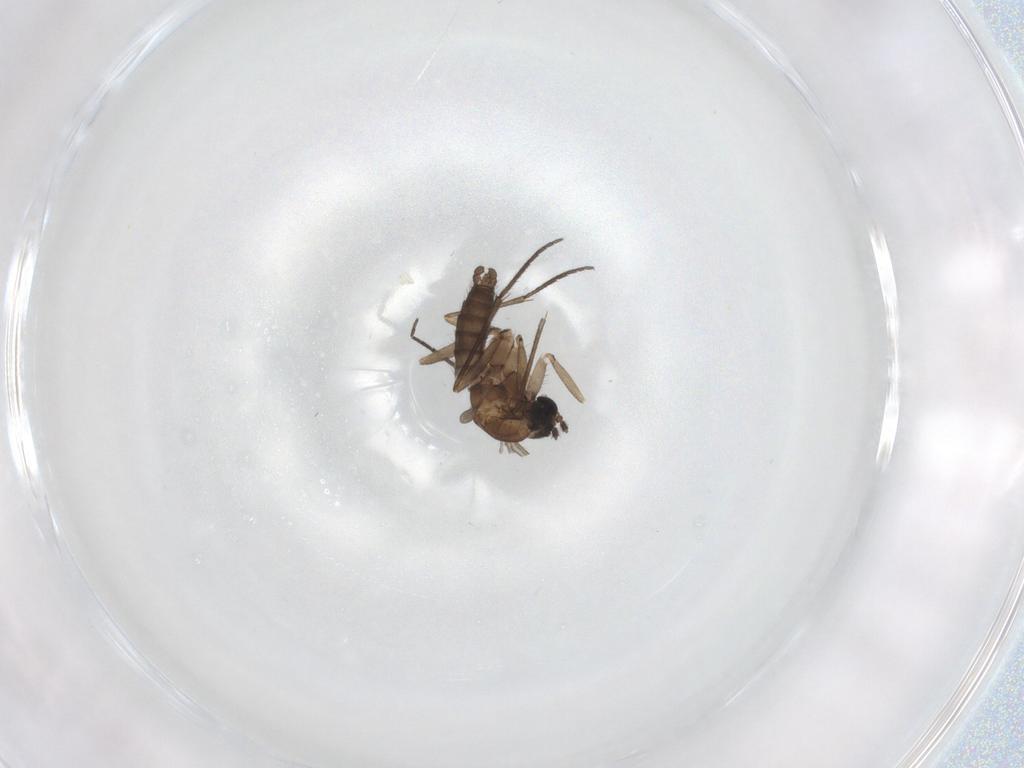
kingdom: Animalia
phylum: Arthropoda
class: Insecta
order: Diptera
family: Sciaridae
